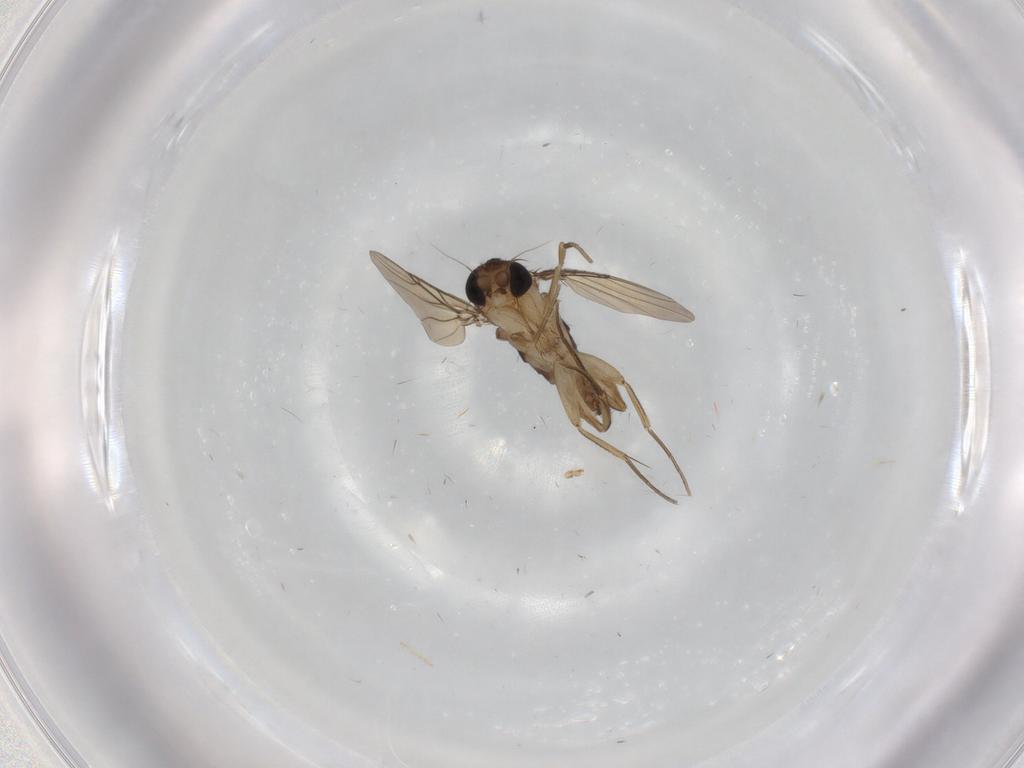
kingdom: Animalia
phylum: Arthropoda
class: Insecta
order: Diptera
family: Phoridae
